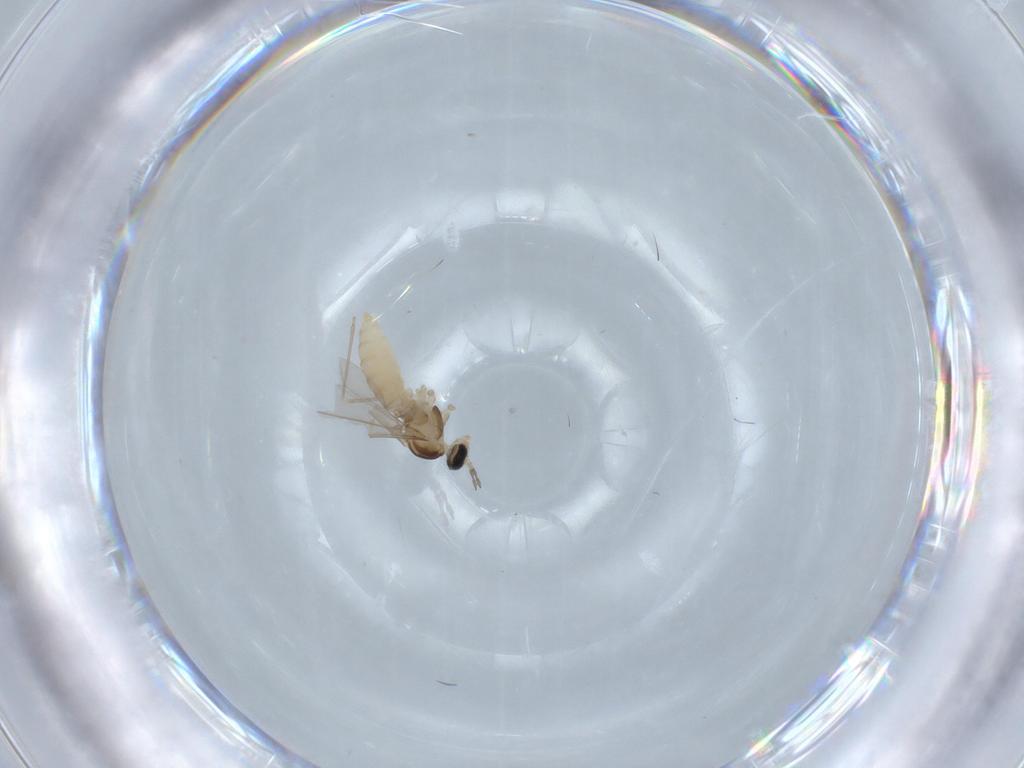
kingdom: Animalia
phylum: Arthropoda
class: Insecta
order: Diptera
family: Cecidomyiidae
